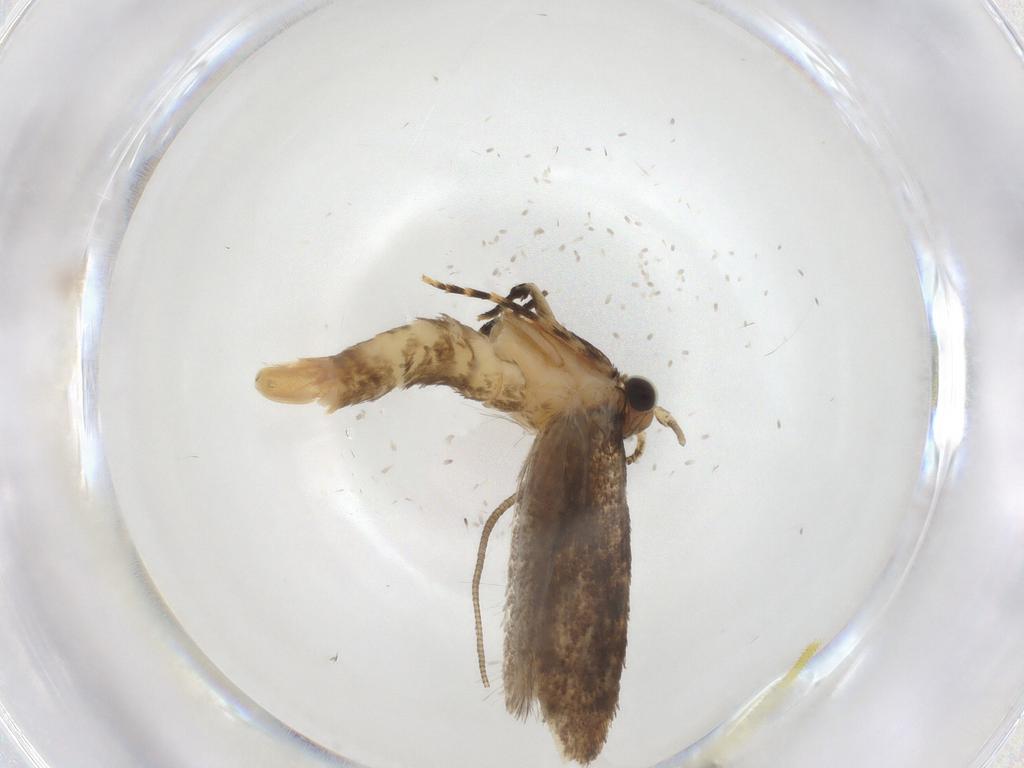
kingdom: Animalia
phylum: Arthropoda
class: Insecta
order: Lepidoptera
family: Tineidae
